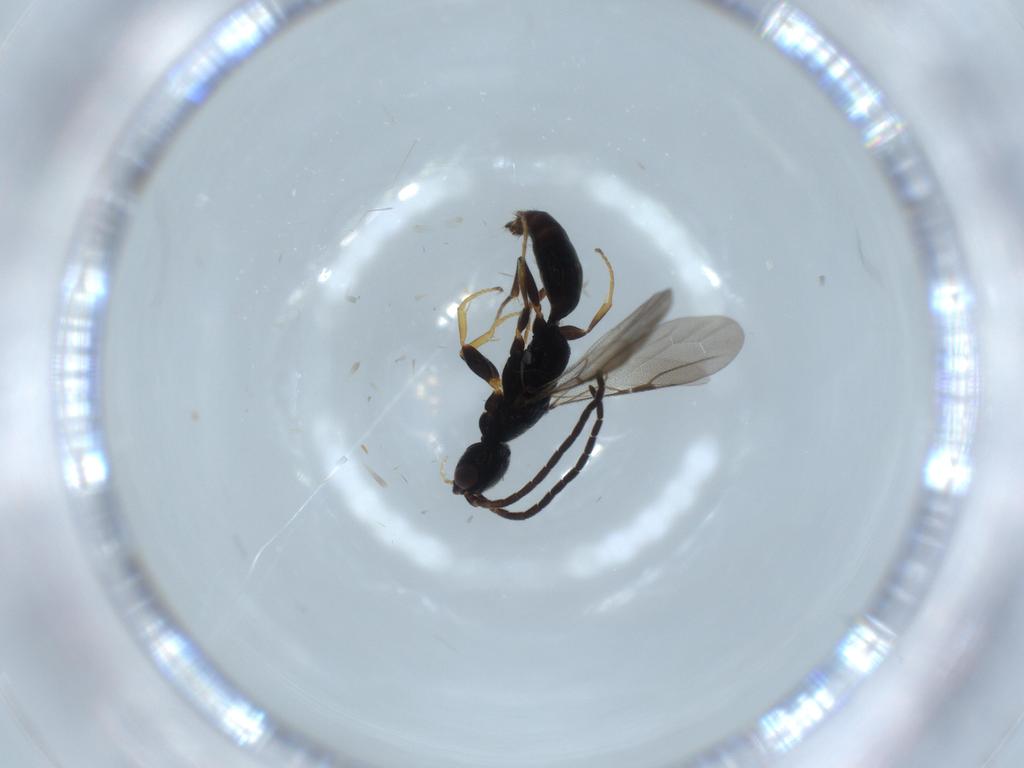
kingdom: Animalia
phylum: Arthropoda
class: Insecta
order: Hymenoptera
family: Bethylidae
